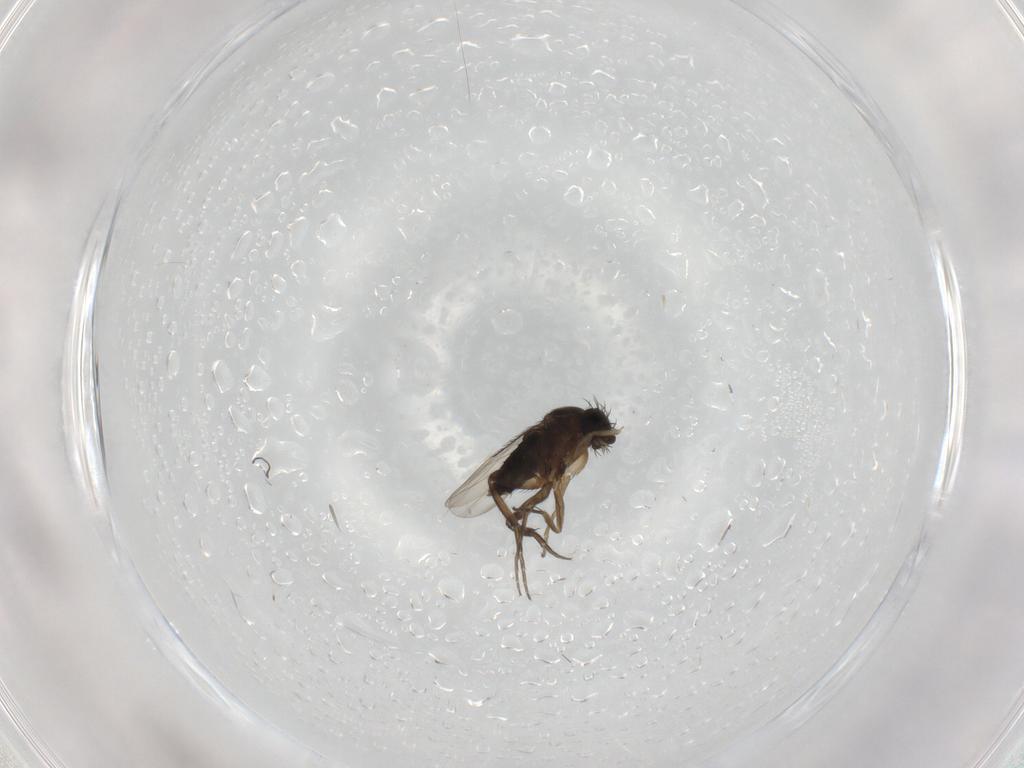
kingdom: Animalia
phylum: Arthropoda
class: Insecta
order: Diptera
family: Phoridae
